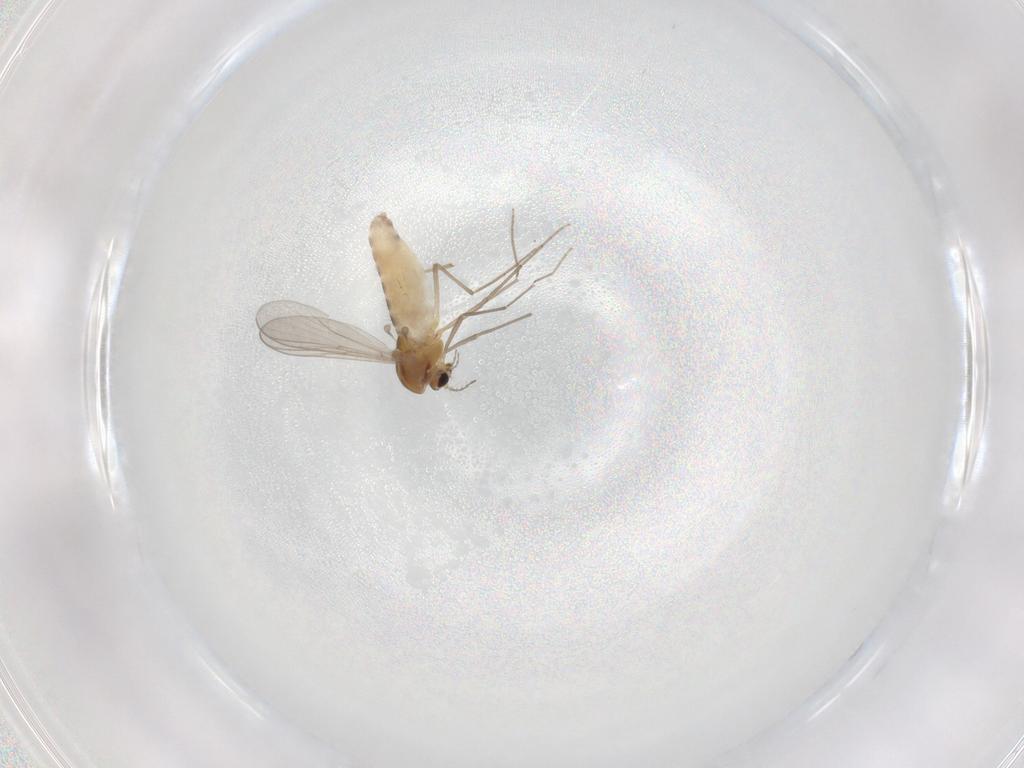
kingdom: Animalia
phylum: Arthropoda
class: Insecta
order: Diptera
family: Chironomidae
